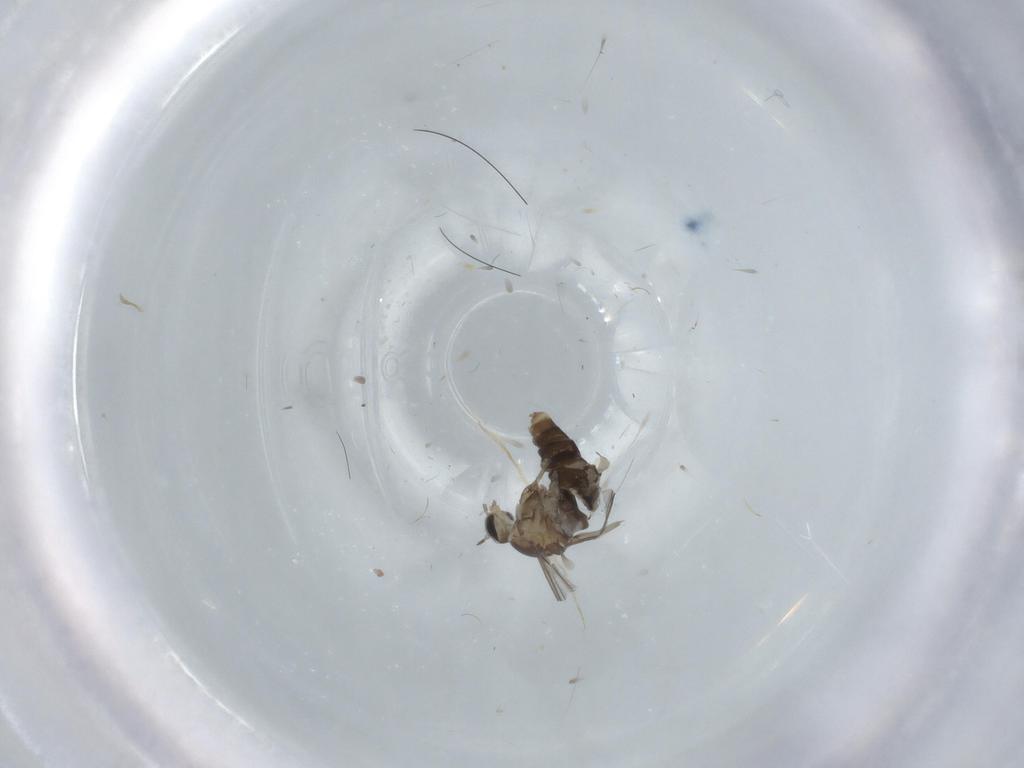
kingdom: Animalia
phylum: Arthropoda
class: Insecta
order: Diptera
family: Cecidomyiidae
